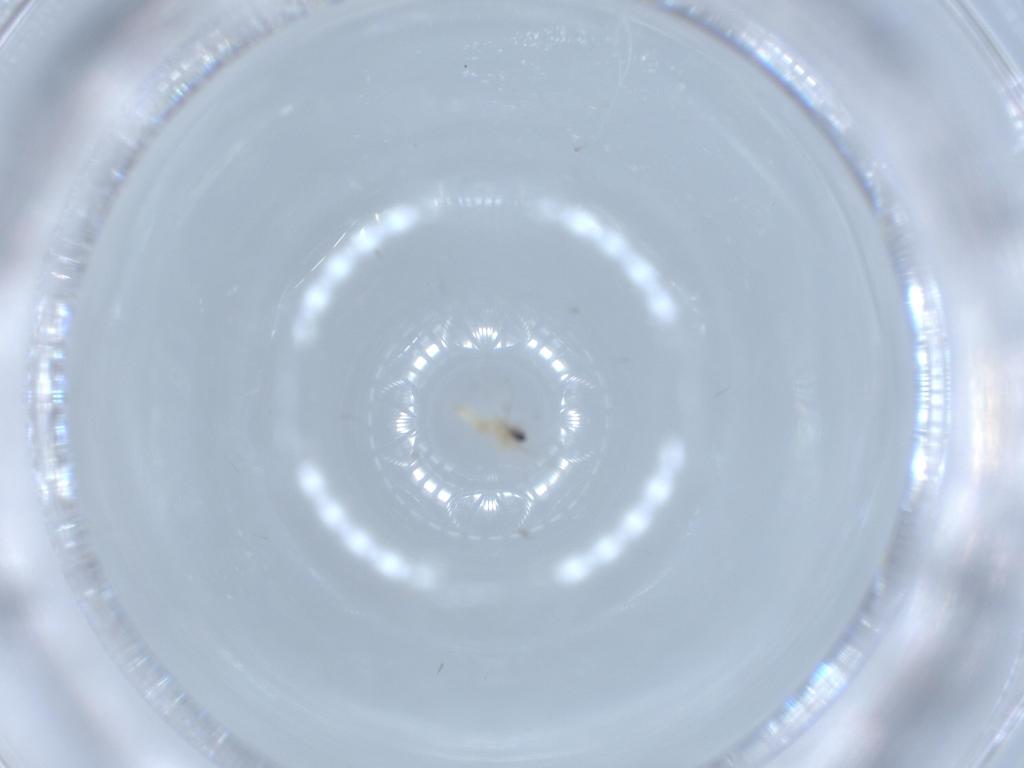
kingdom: Animalia
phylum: Arthropoda
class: Insecta
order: Diptera
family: Cecidomyiidae
